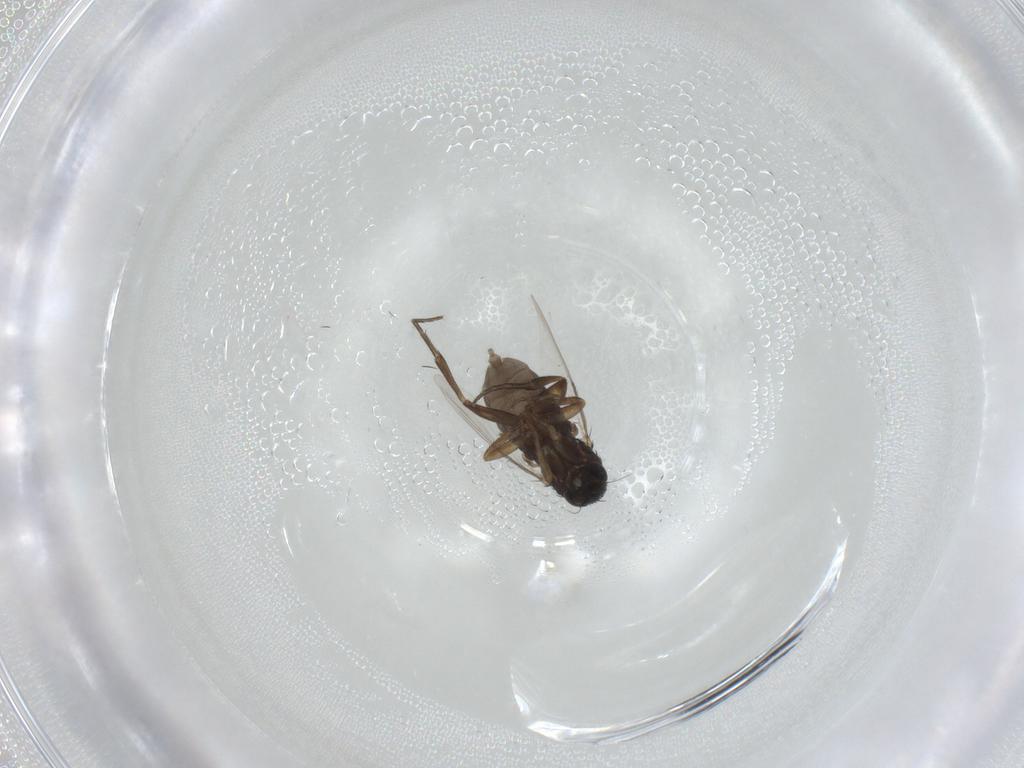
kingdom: Animalia
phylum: Arthropoda
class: Insecta
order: Diptera
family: Phoridae
